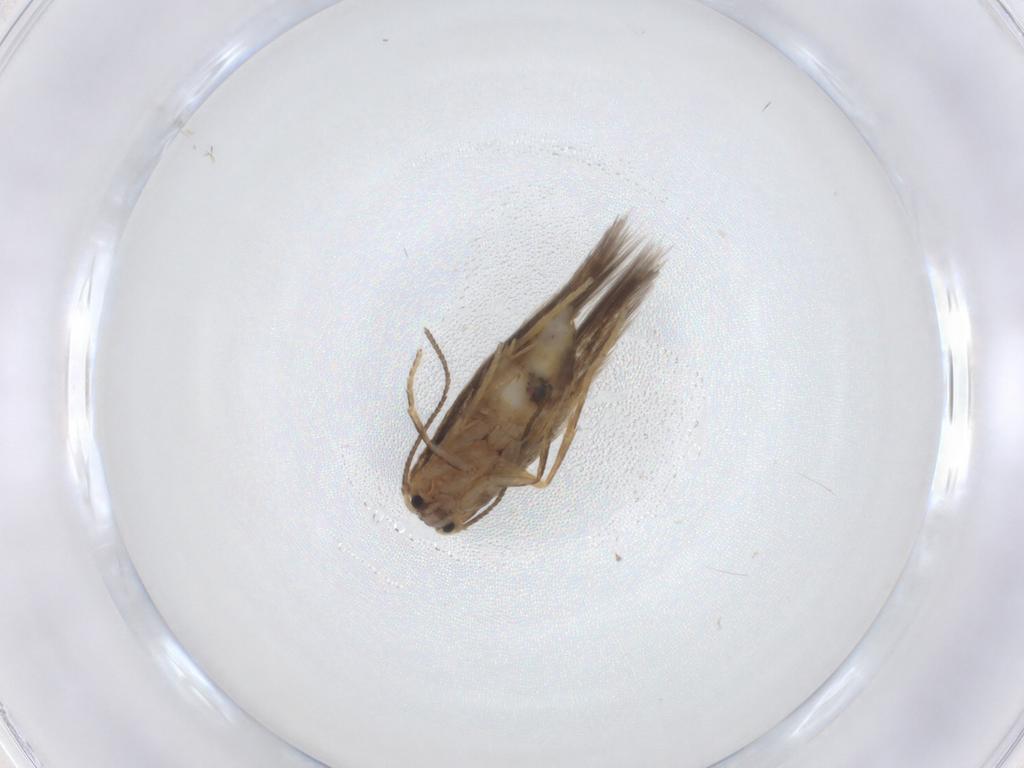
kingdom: Animalia
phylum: Arthropoda
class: Insecta
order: Lepidoptera
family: Nepticulidae
